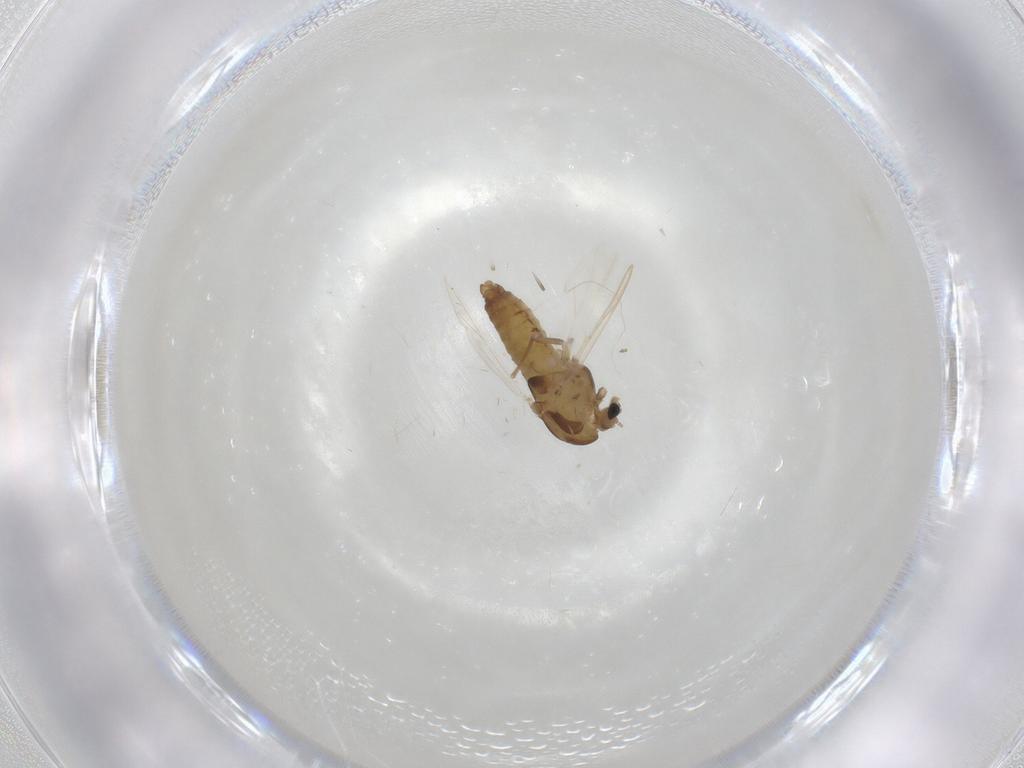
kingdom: Animalia
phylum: Arthropoda
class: Insecta
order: Diptera
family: Chironomidae
